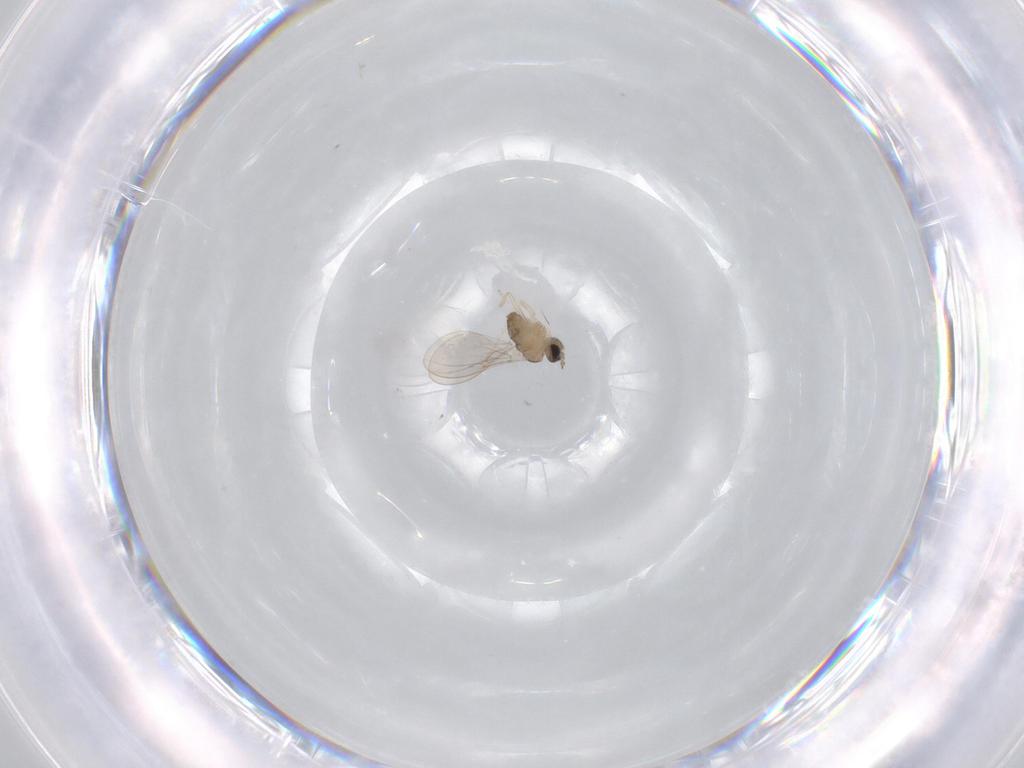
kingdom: Animalia
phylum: Arthropoda
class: Insecta
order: Diptera
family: Cecidomyiidae
